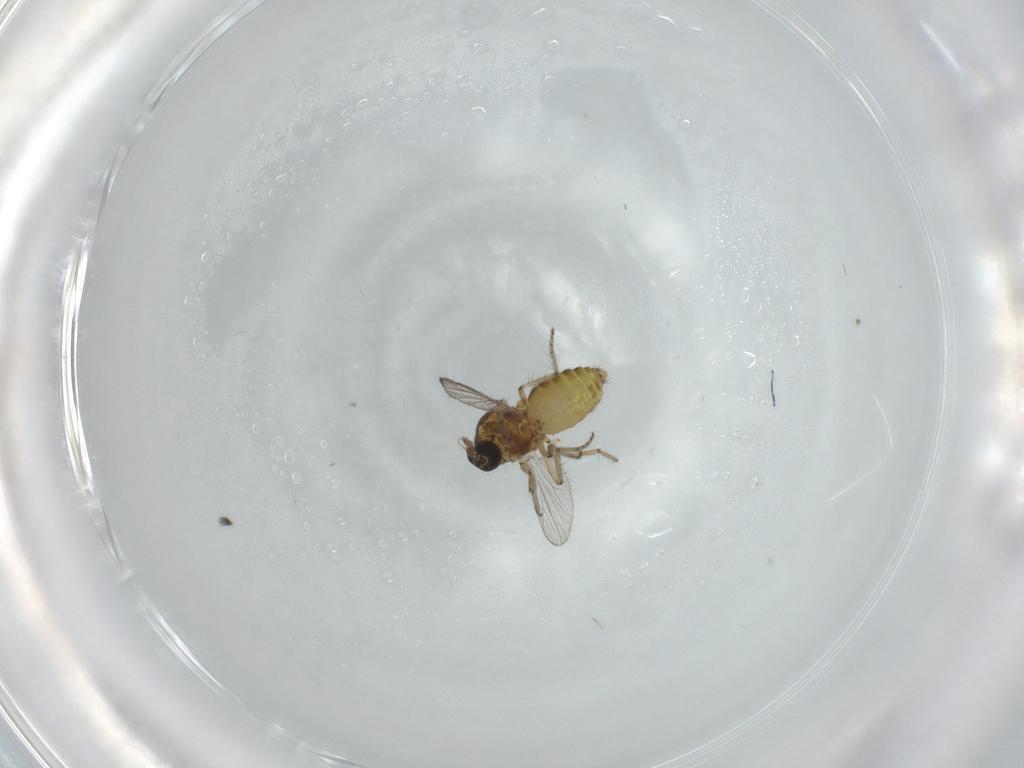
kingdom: Animalia
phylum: Arthropoda
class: Insecta
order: Diptera
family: Ceratopogonidae
